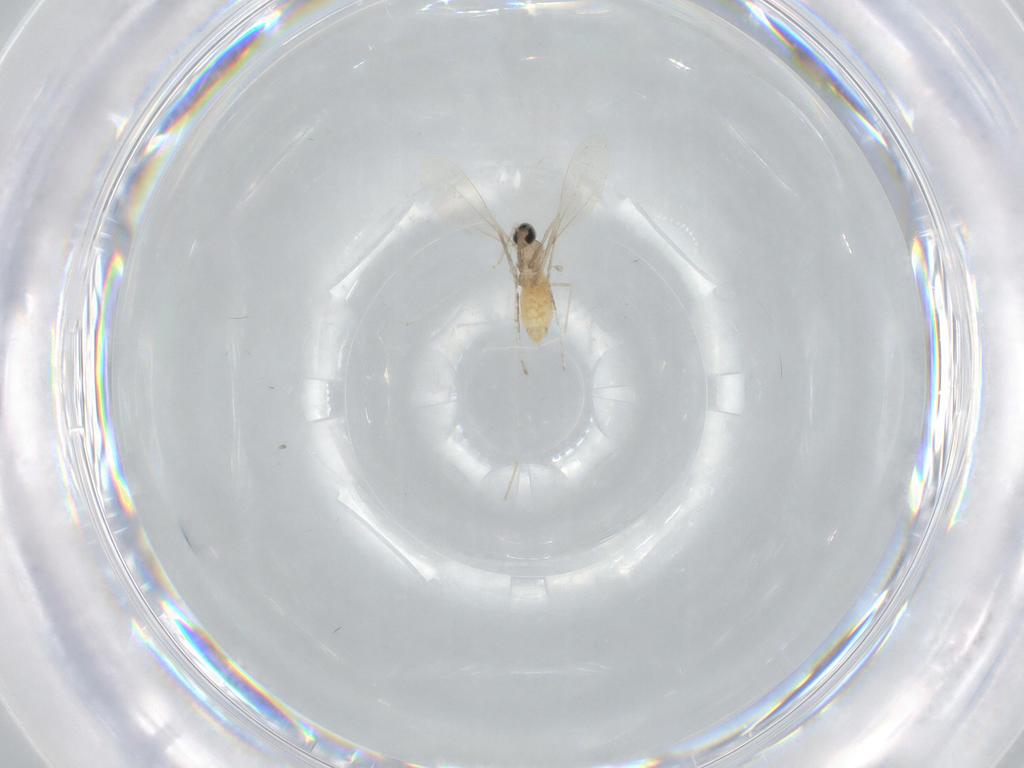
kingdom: Animalia
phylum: Arthropoda
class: Insecta
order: Diptera
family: Cecidomyiidae
